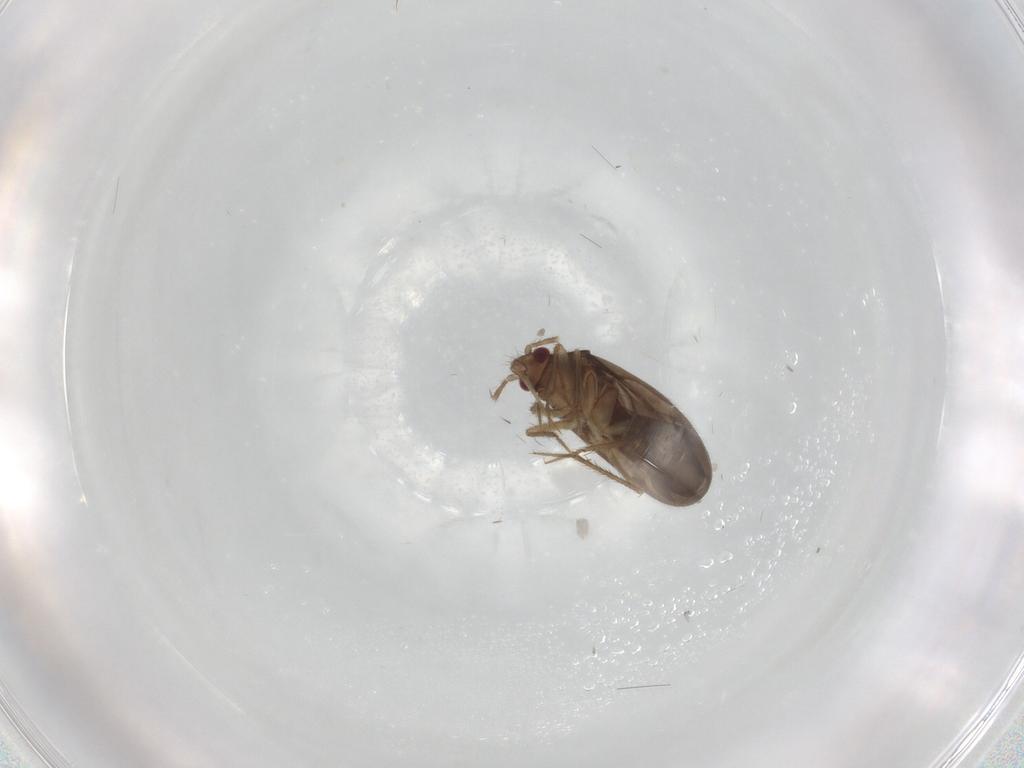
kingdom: Animalia
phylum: Arthropoda
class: Insecta
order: Hemiptera
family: Ceratocombidae
